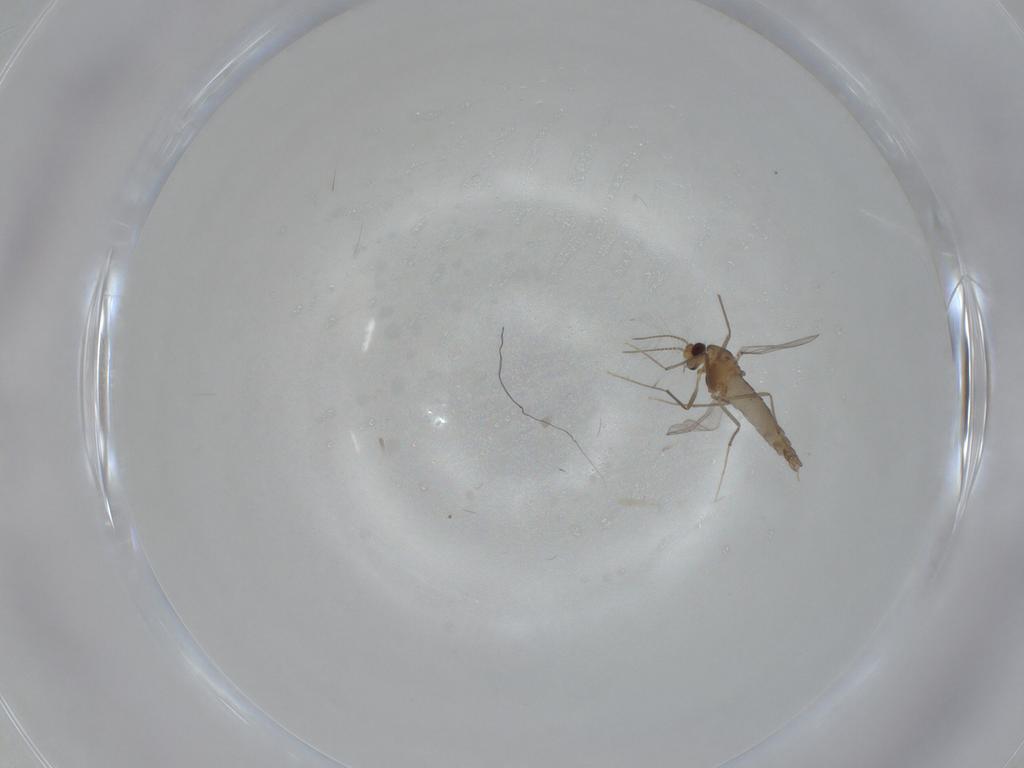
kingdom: Animalia
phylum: Arthropoda
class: Insecta
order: Diptera
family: Chironomidae
